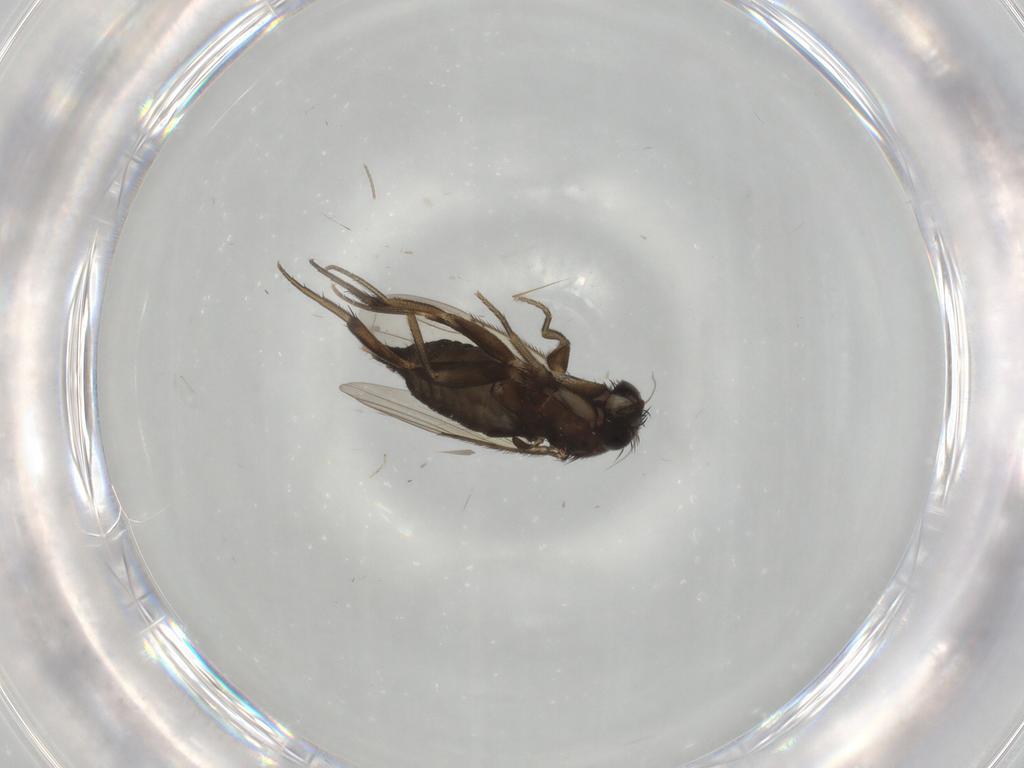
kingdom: Animalia
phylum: Arthropoda
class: Insecta
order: Diptera
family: Phoridae
